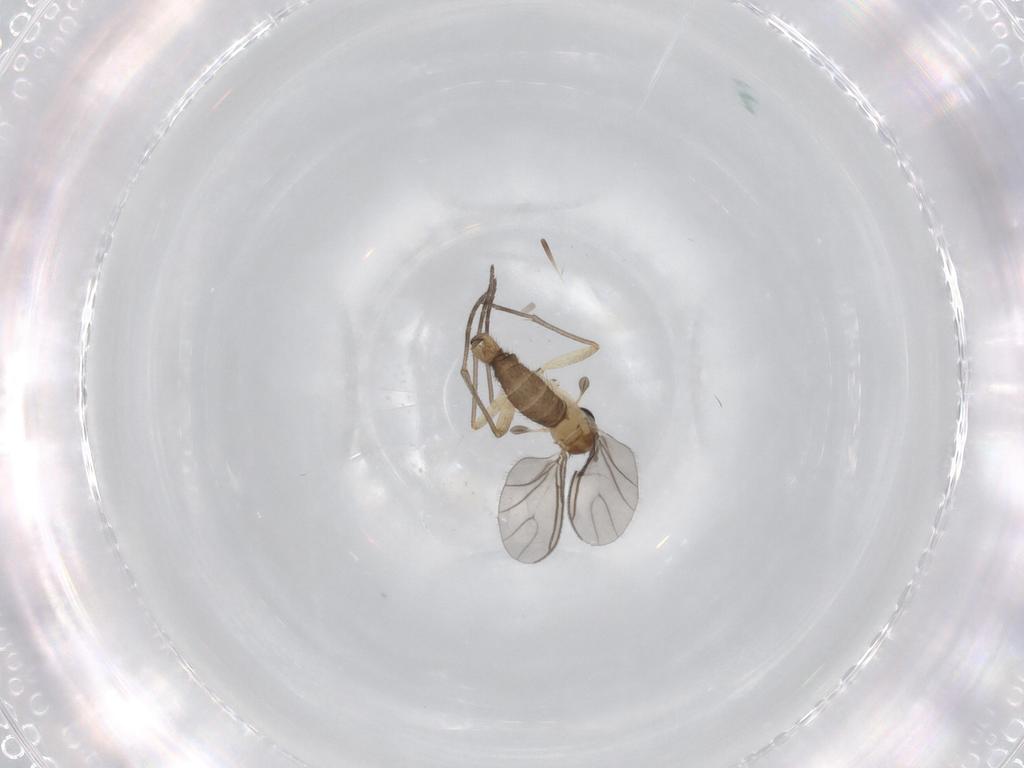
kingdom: Animalia
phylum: Arthropoda
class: Insecta
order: Diptera
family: Sciaridae
